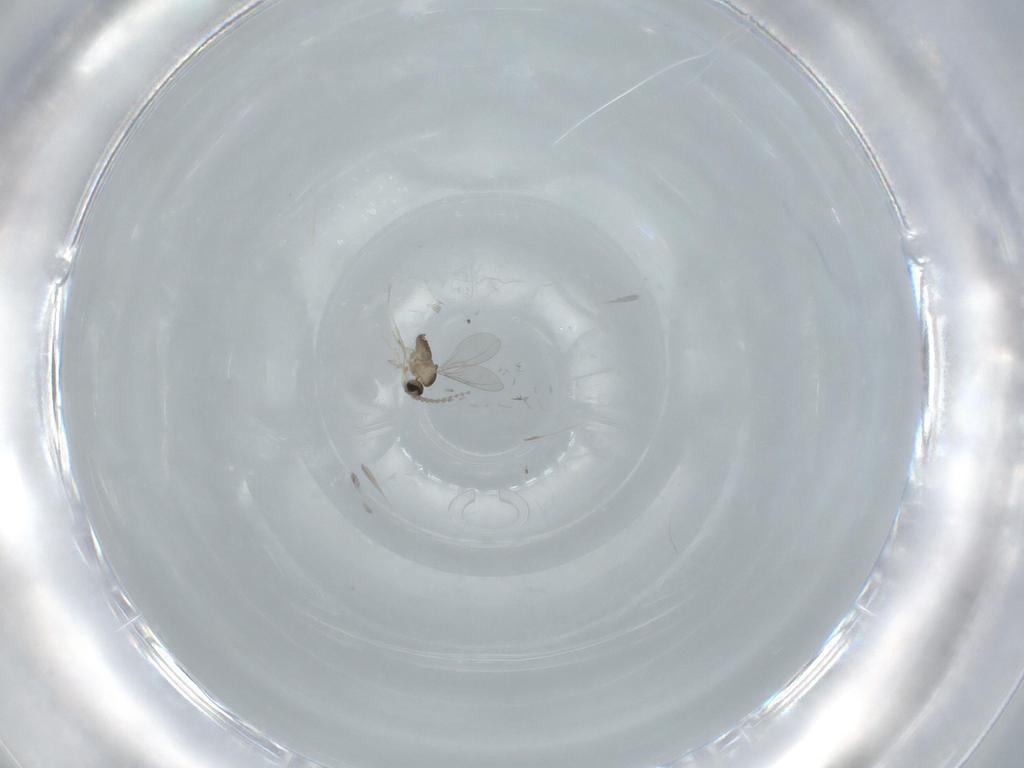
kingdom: Animalia
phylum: Arthropoda
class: Insecta
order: Diptera
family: Cecidomyiidae
